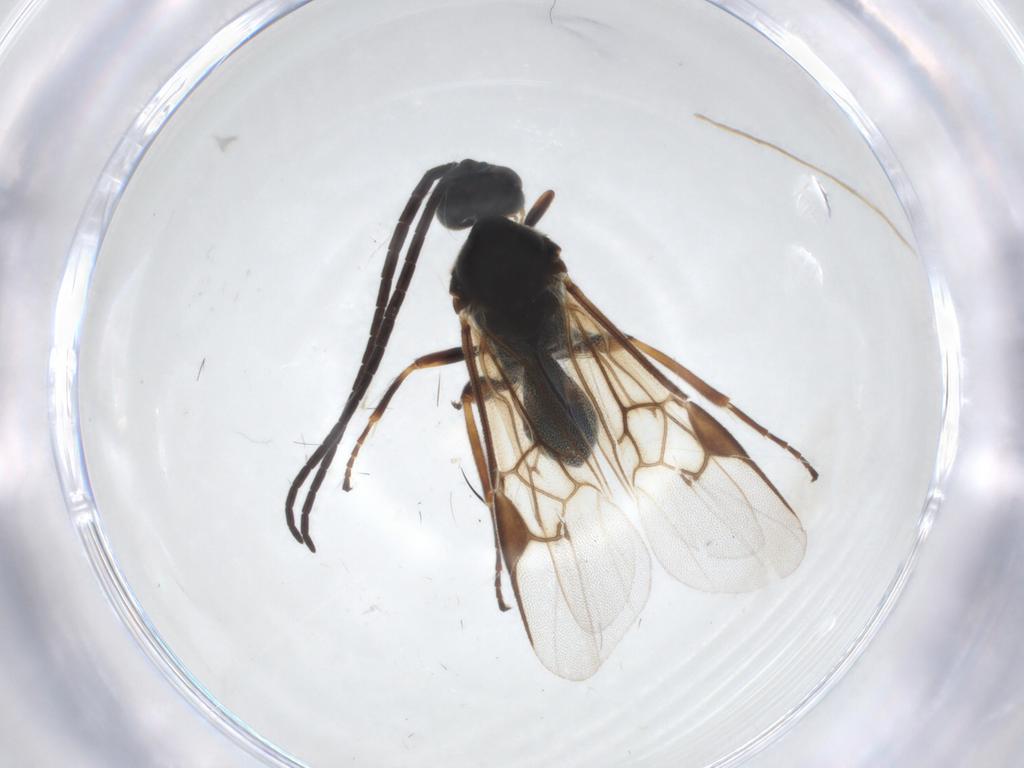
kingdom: Animalia
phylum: Arthropoda
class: Insecta
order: Hymenoptera
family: Braconidae
